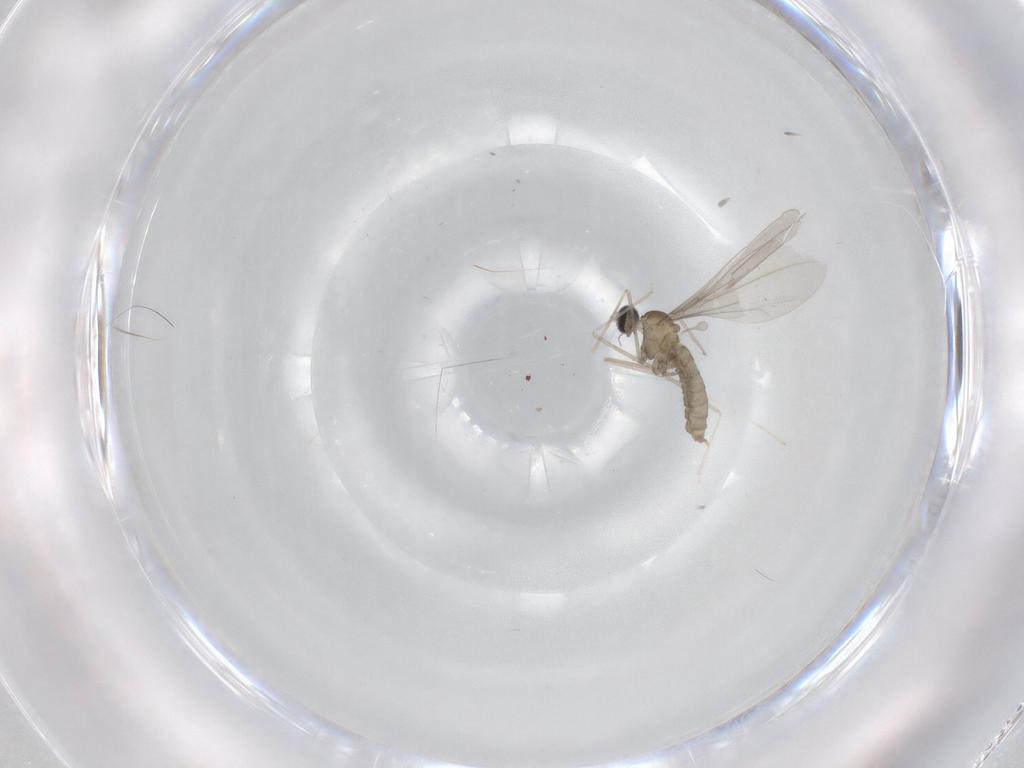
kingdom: Animalia
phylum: Arthropoda
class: Insecta
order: Diptera
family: Cecidomyiidae
